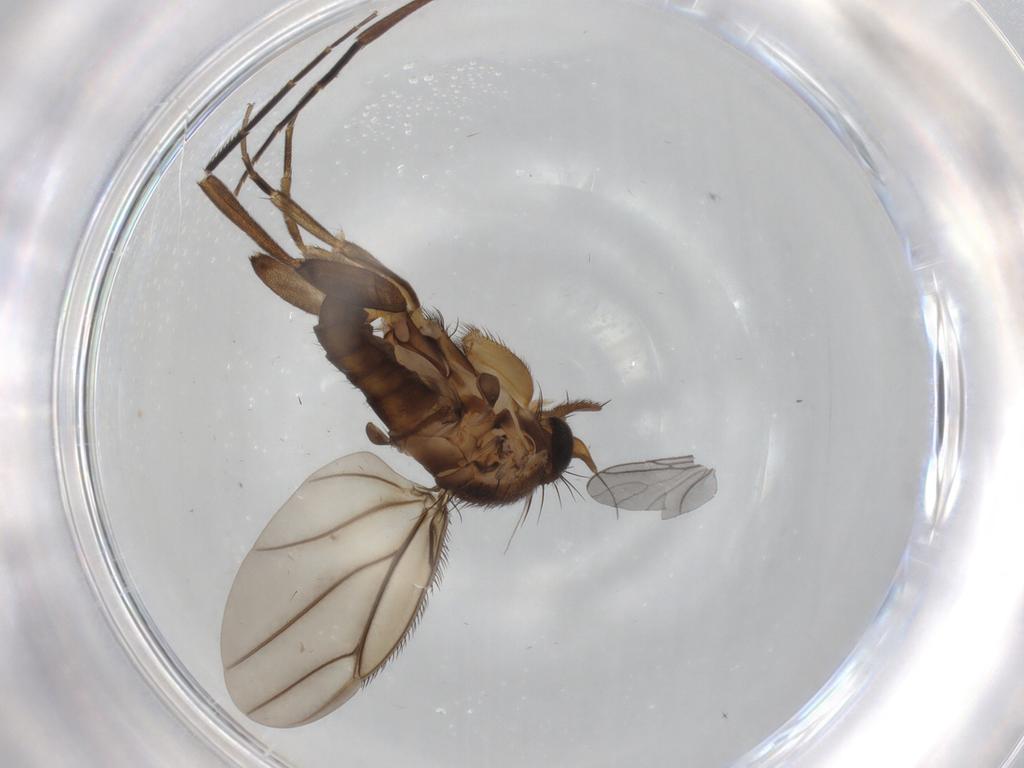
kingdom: Animalia
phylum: Arthropoda
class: Insecta
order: Diptera
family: Phoridae
